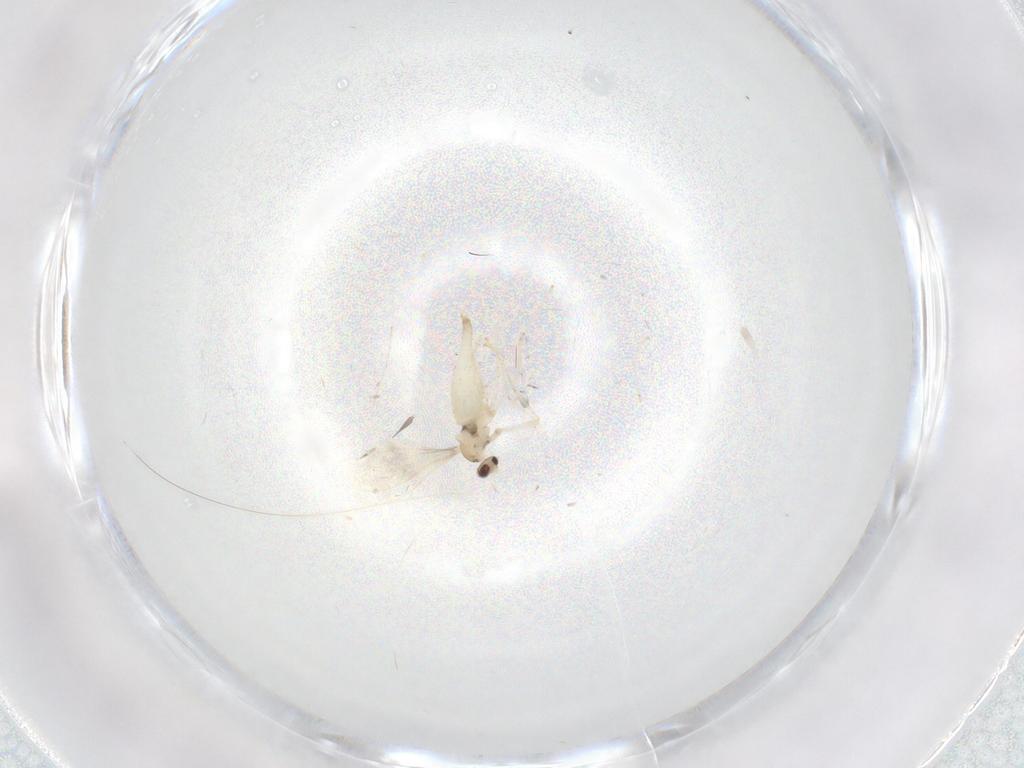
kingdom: Animalia
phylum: Arthropoda
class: Insecta
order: Diptera
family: Cecidomyiidae
